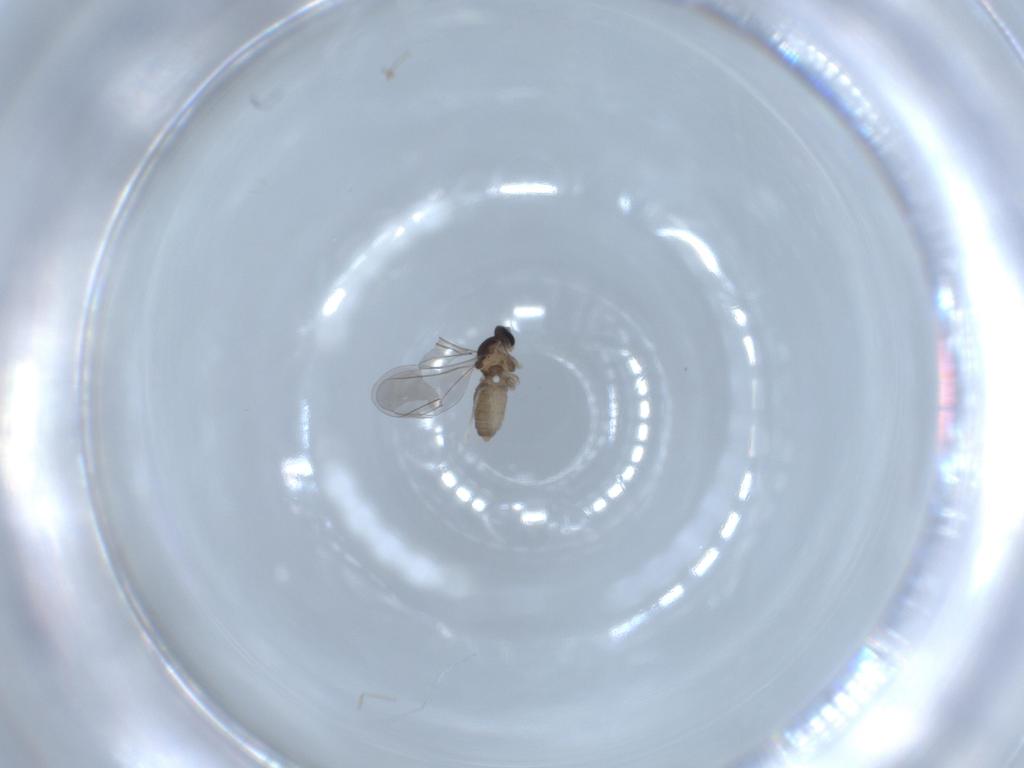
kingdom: Animalia
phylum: Arthropoda
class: Insecta
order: Diptera
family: Cecidomyiidae
